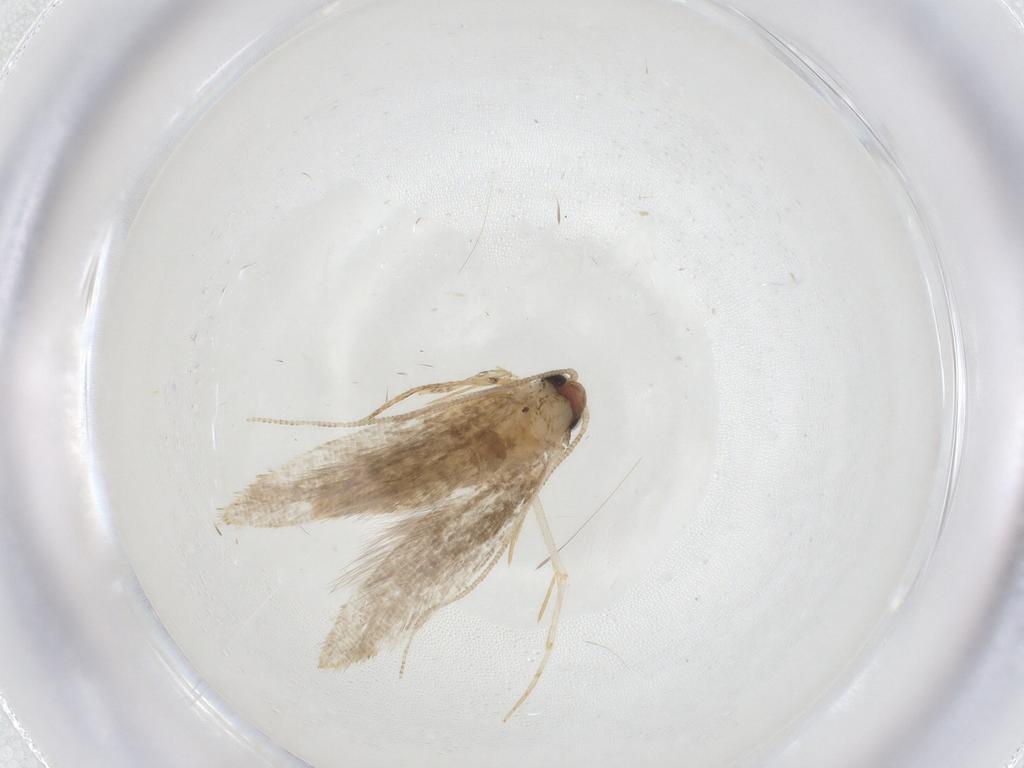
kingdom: Animalia
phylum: Arthropoda
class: Insecta
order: Lepidoptera
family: Tineidae
